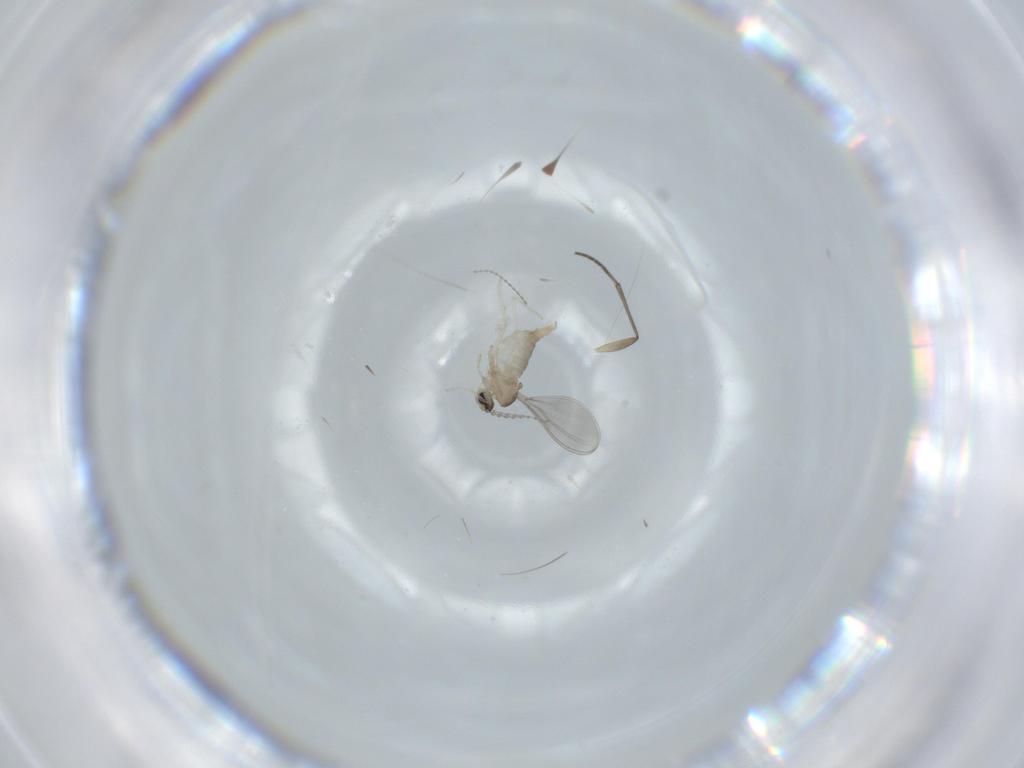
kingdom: Animalia
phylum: Arthropoda
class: Insecta
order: Diptera
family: Cecidomyiidae
